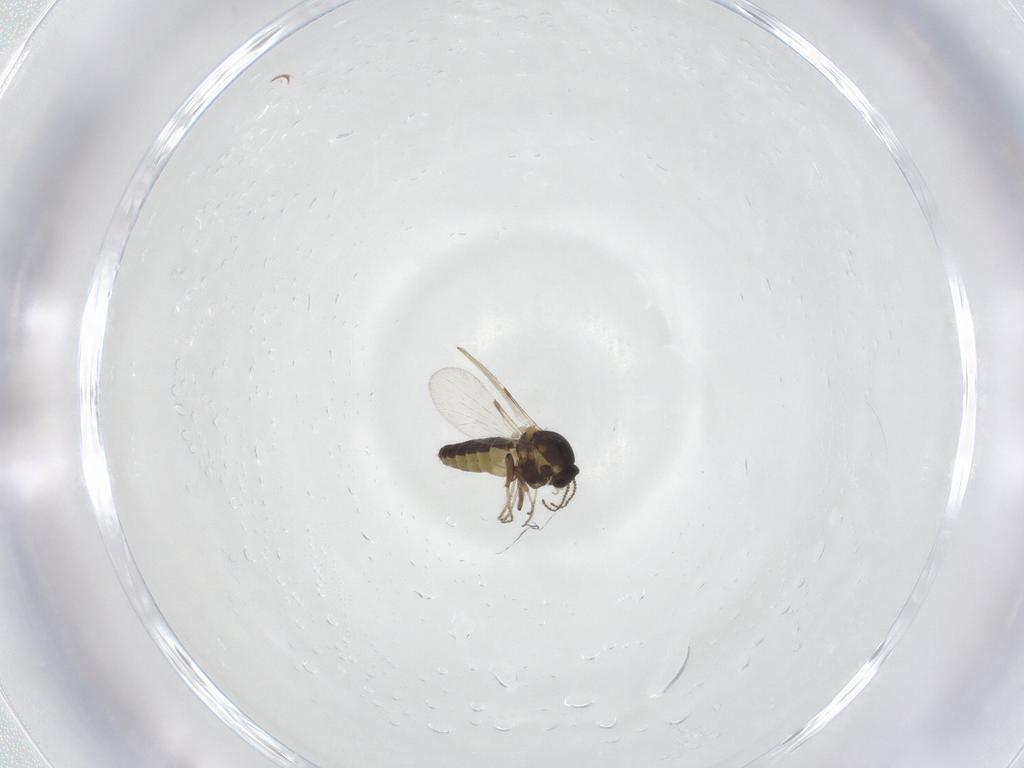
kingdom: Animalia
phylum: Arthropoda
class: Insecta
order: Diptera
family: Ceratopogonidae
